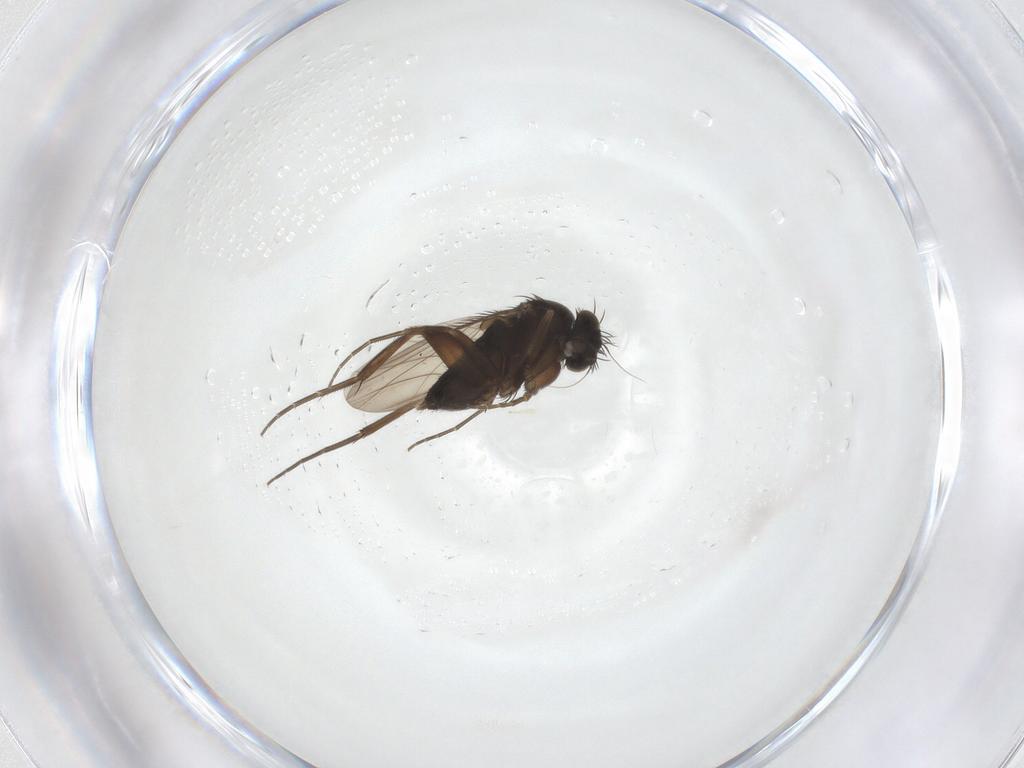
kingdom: Animalia
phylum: Arthropoda
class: Insecta
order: Diptera
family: Phoridae
